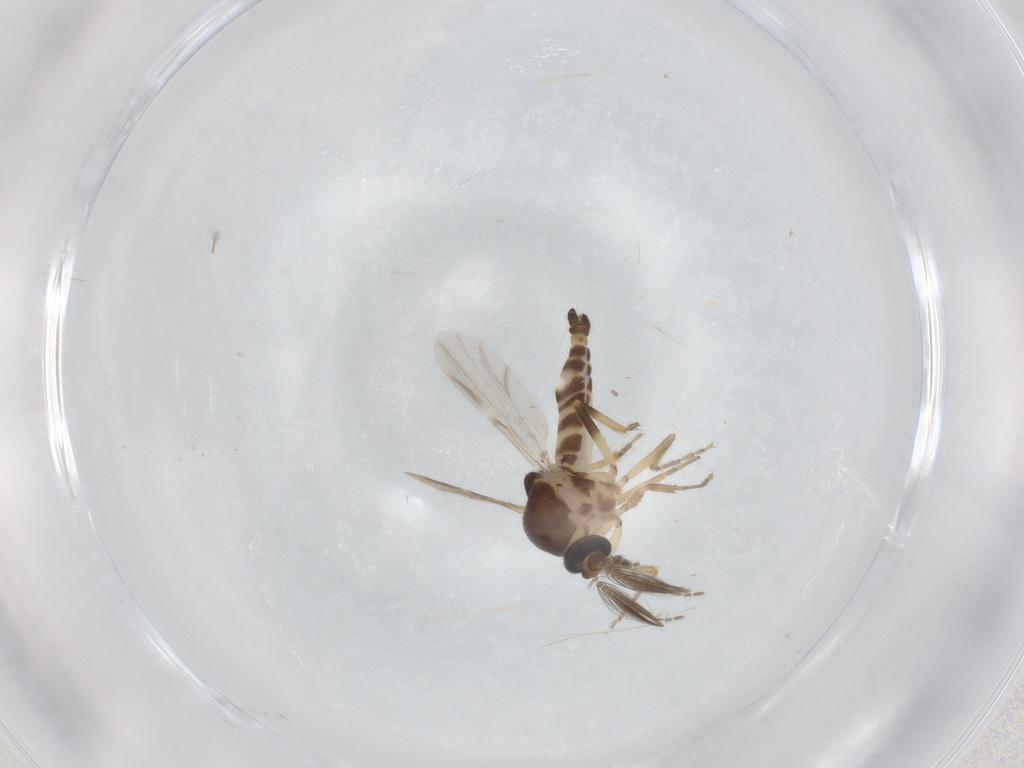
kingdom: Animalia
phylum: Arthropoda
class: Insecta
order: Diptera
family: Ceratopogonidae
